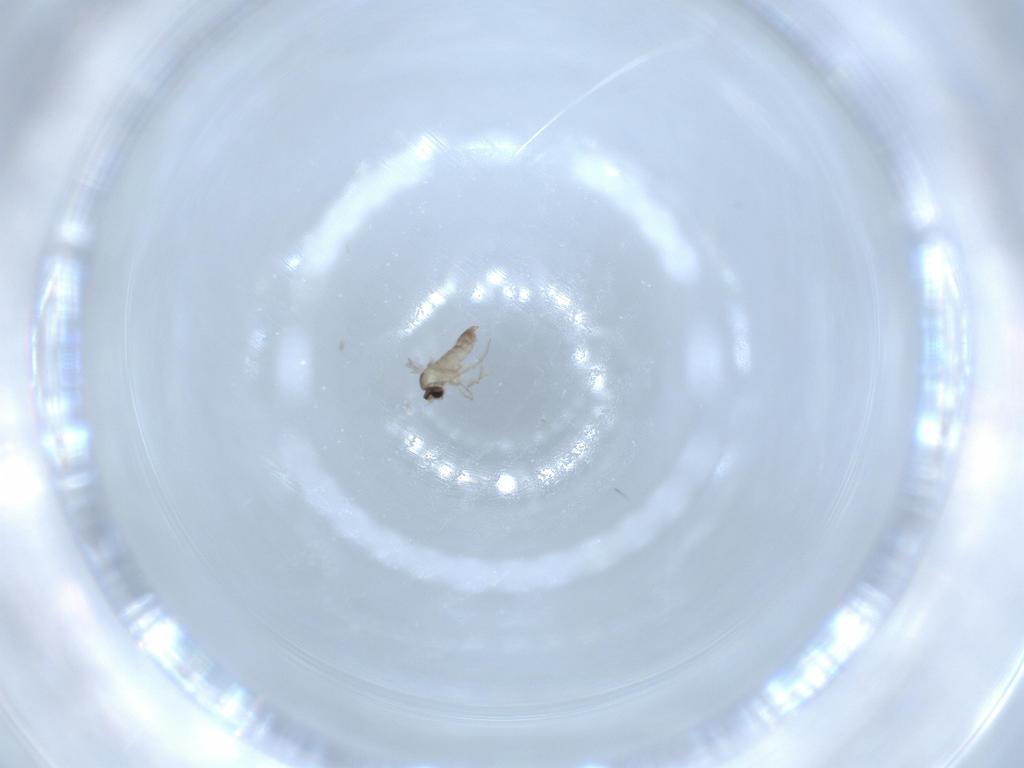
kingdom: Animalia
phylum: Arthropoda
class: Insecta
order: Diptera
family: Cecidomyiidae
